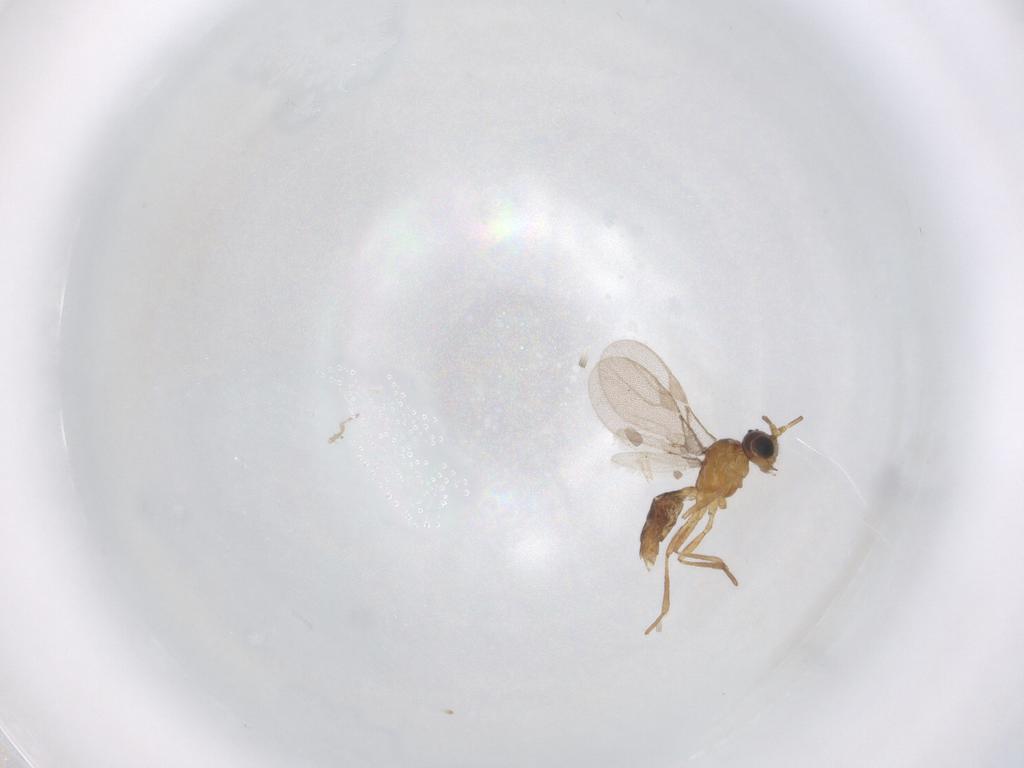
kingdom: Animalia
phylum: Arthropoda
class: Insecta
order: Hymenoptera
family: Braconidae
